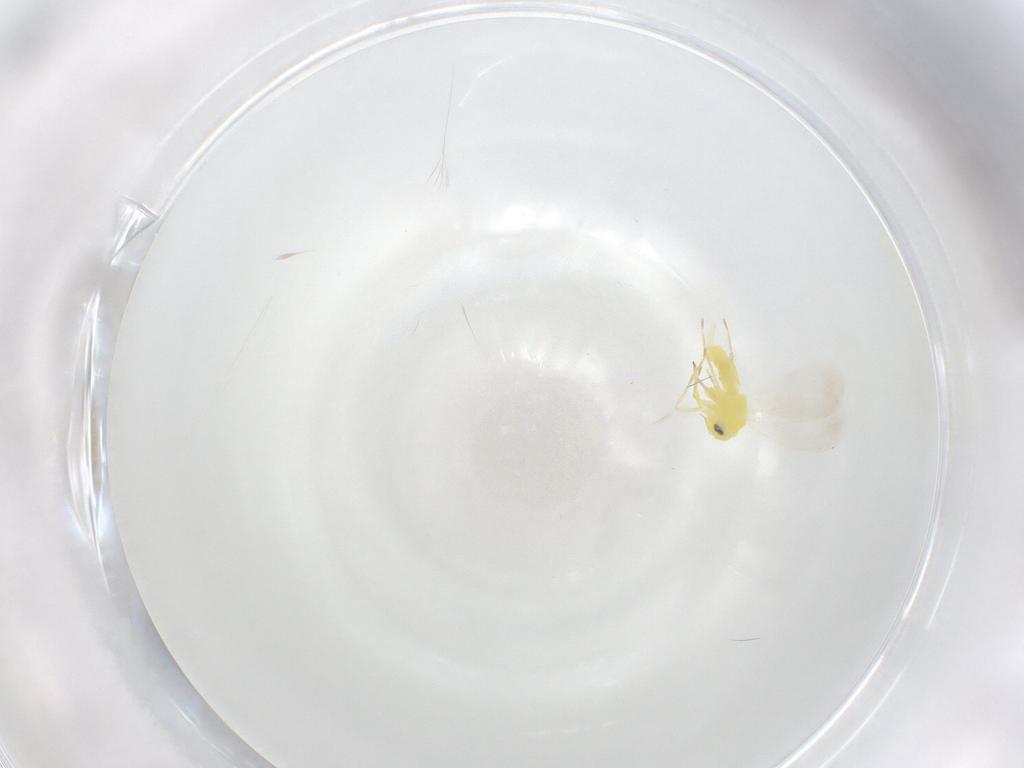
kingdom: Animalia
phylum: Arthropoda
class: Insecta
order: Hemiptera
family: Aleyrodidae
